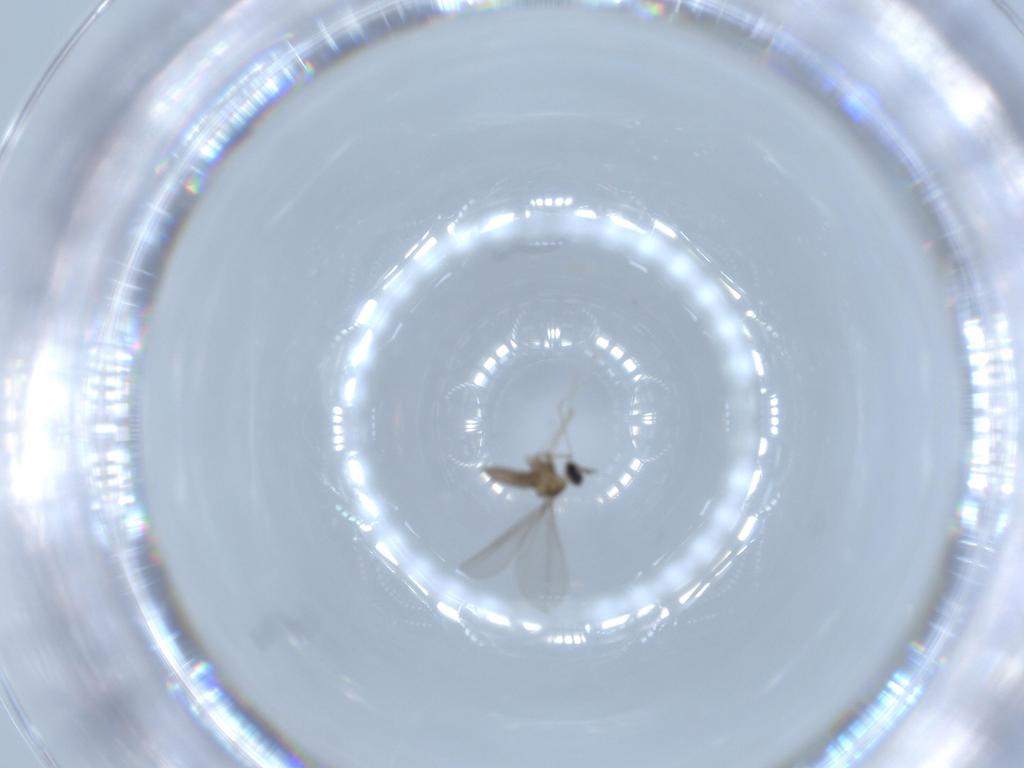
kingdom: Animalia
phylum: Arthropoda
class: Insecta
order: Diptera
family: Cecidomyiidae
